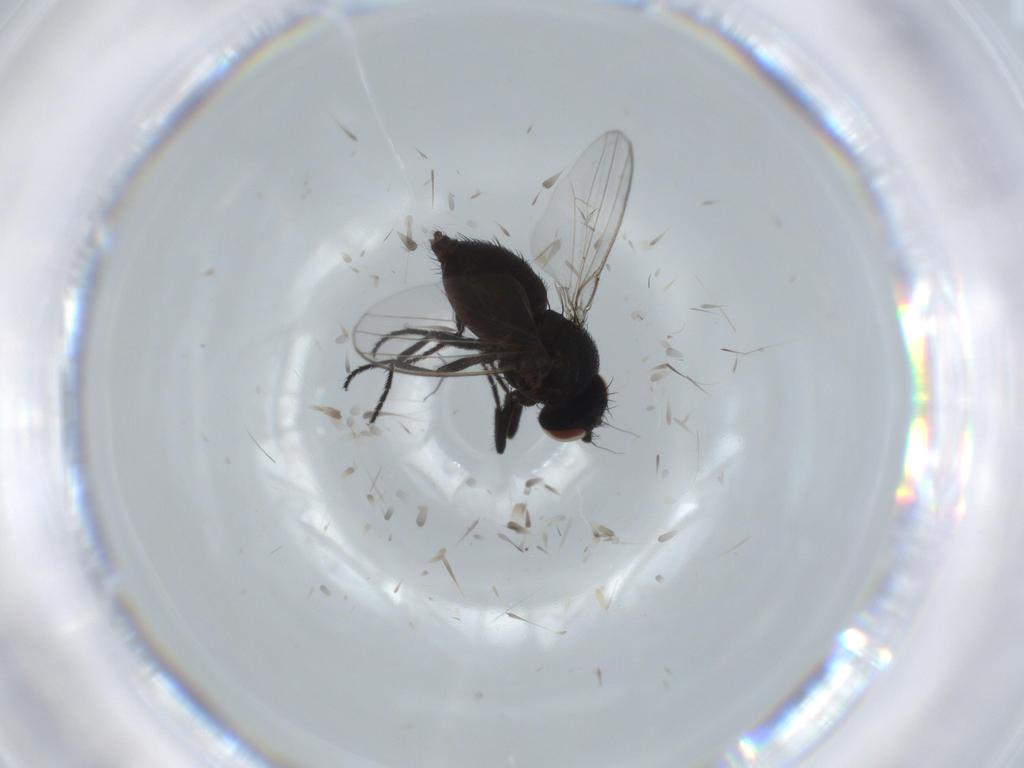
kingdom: Animalia
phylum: Arthropoda
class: Insecta
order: Diptera
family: Milichiidae
